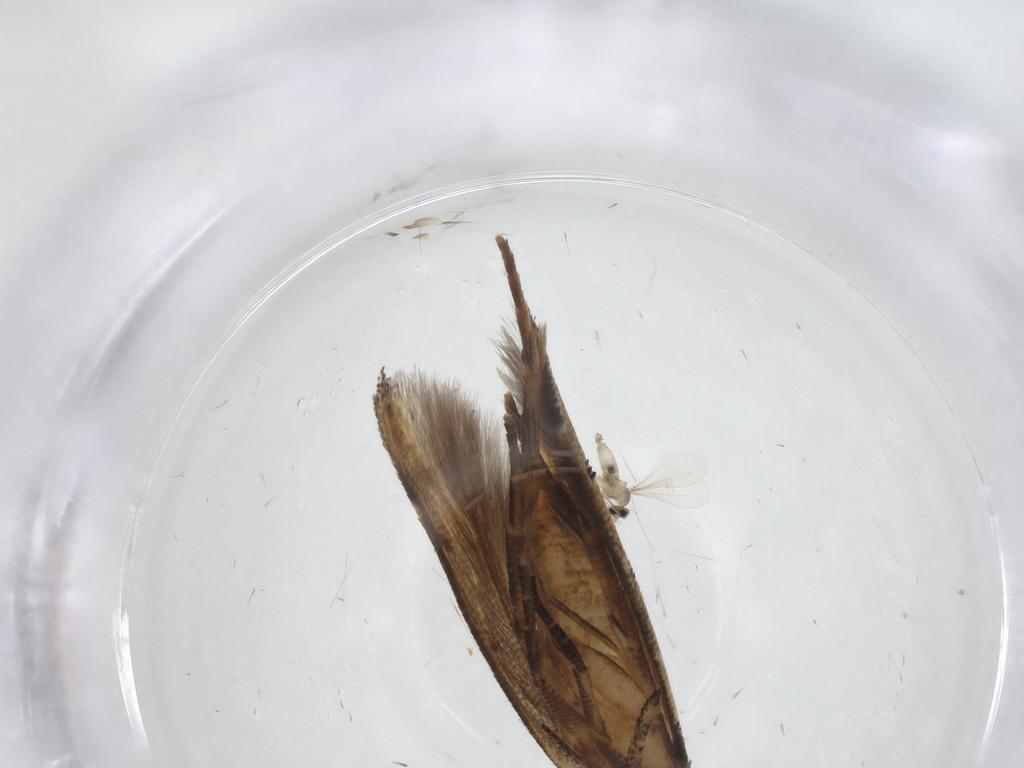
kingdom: Animalia
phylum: Arthropoda
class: Insecta
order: Lepidoptera
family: Cosmopterigidae
